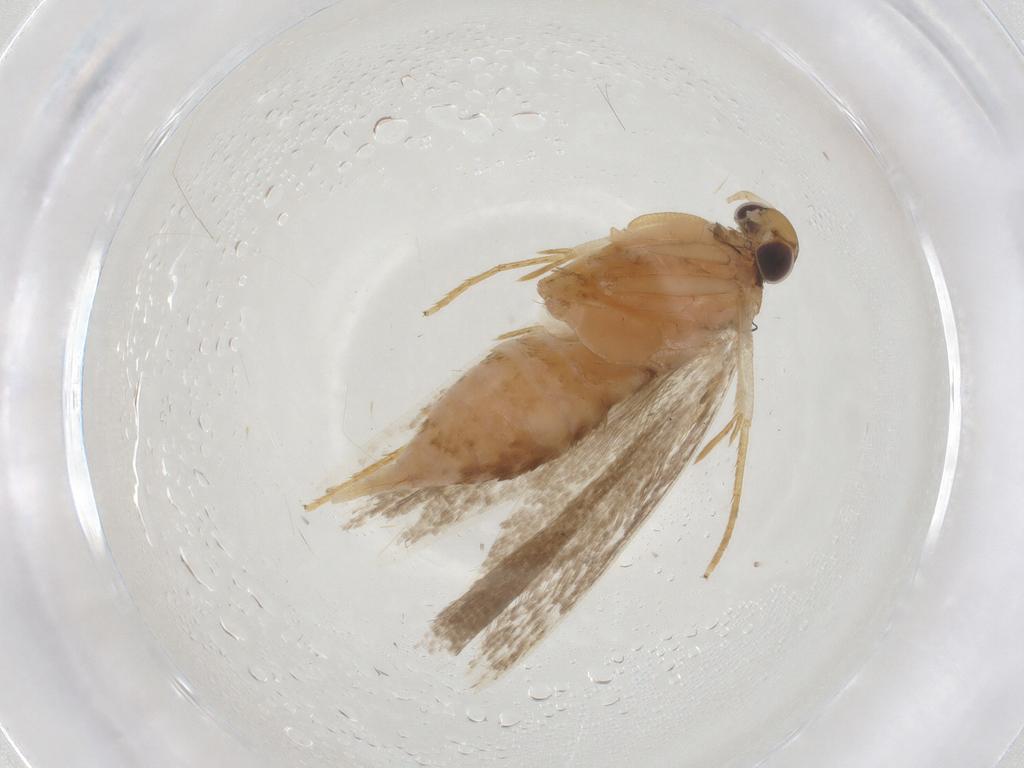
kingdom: Animalia
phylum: Arthropoda
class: Insecta
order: Lepidoptera
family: Gelechiidae
